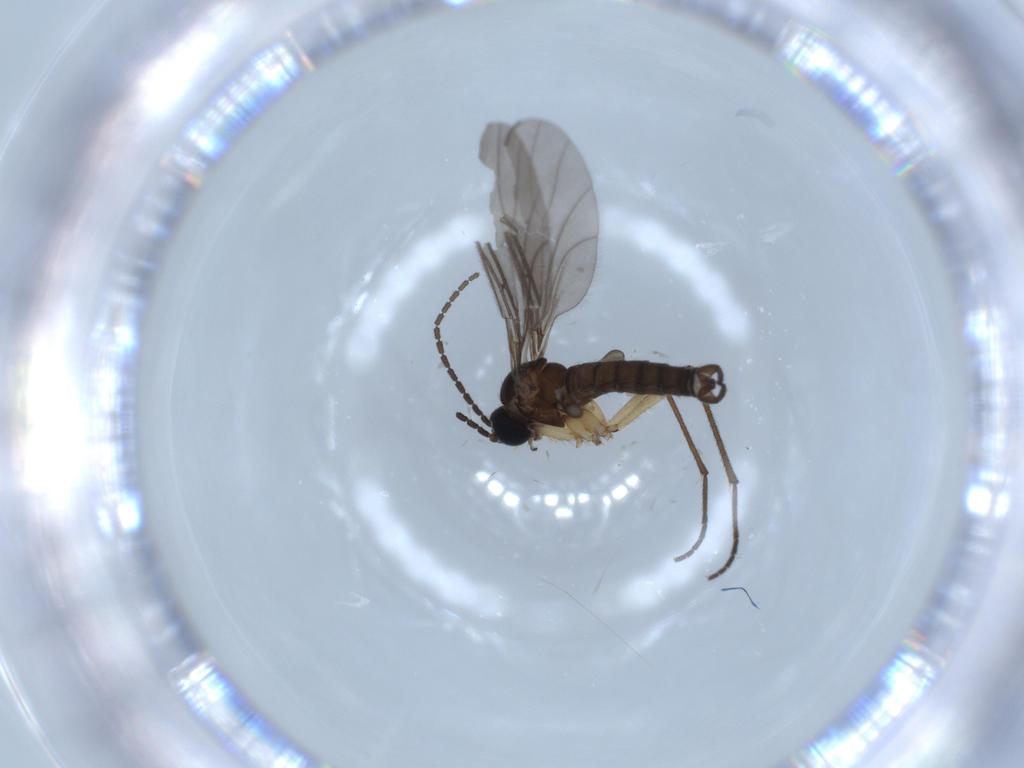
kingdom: Animalia
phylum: Arthropoda
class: Insecta
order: Diptera
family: Sciaridae
